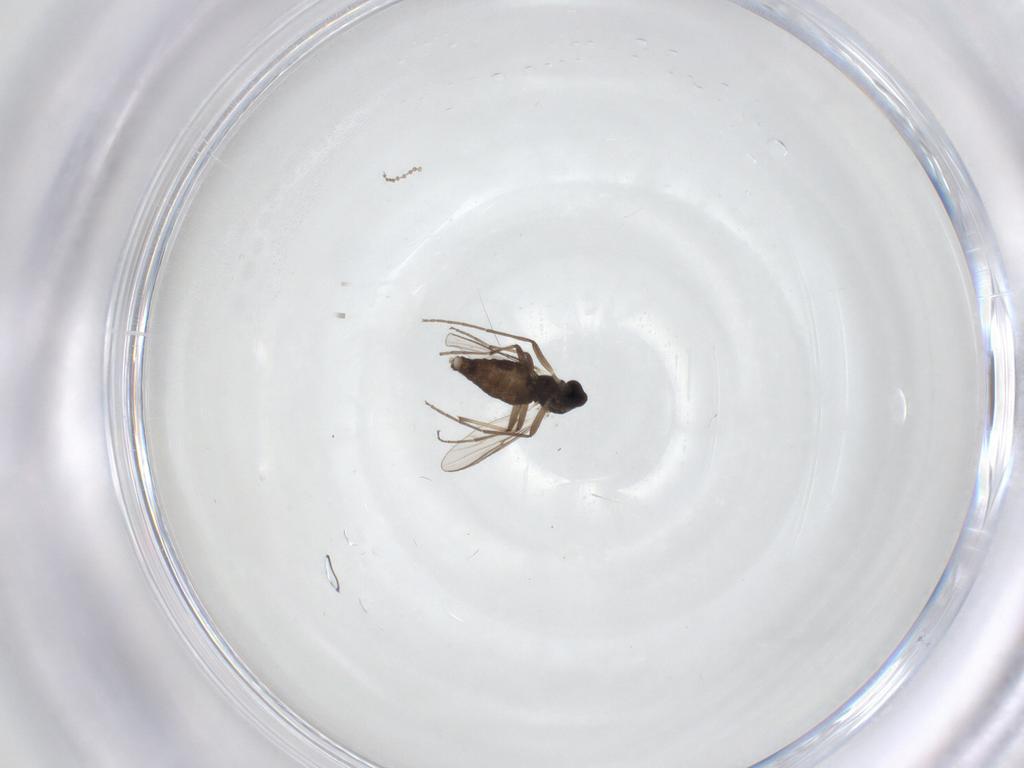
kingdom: Animalia
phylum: Arthropoda
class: Insecta
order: Diptera
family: Chironomidae
